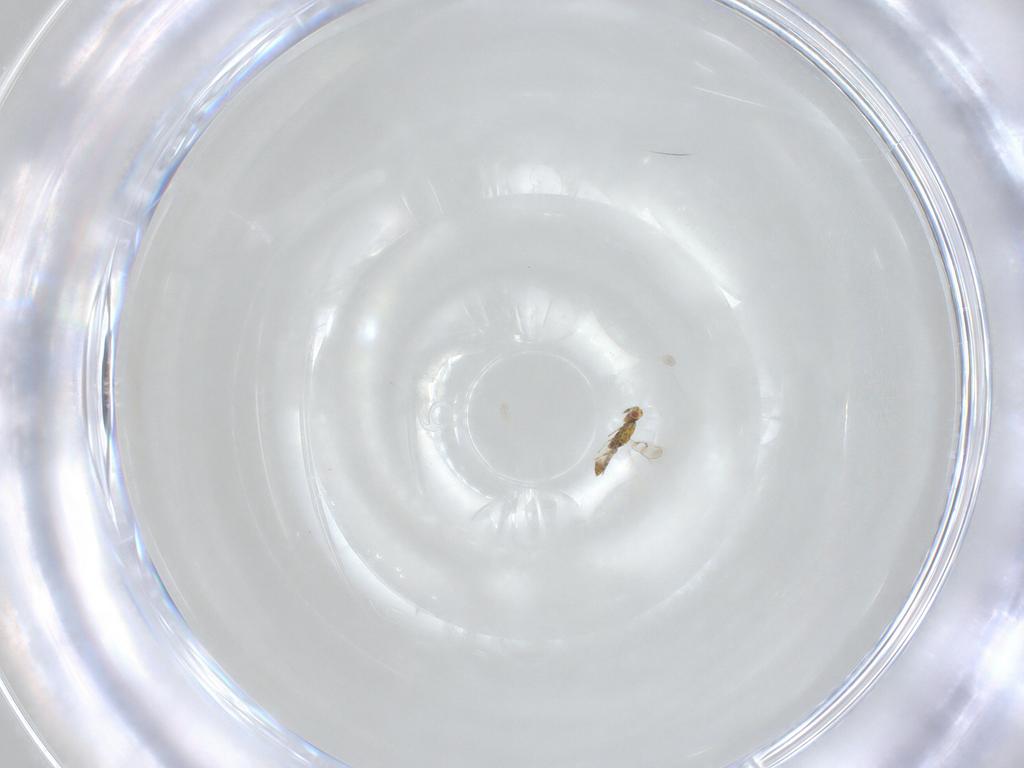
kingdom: Animalia
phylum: Arthropoda
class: Insecta
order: Hymenoptera
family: Eulophidae
